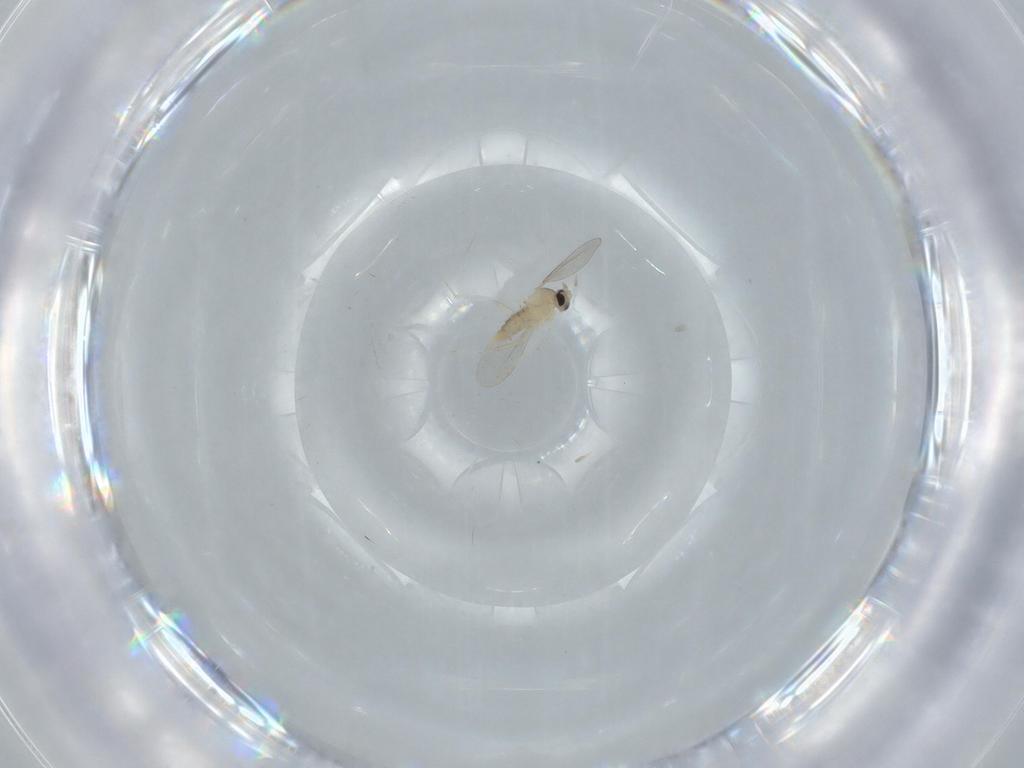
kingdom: Animalia
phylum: Arthropoda
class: Insecta
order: Diptera
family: Cecidomyiidae
